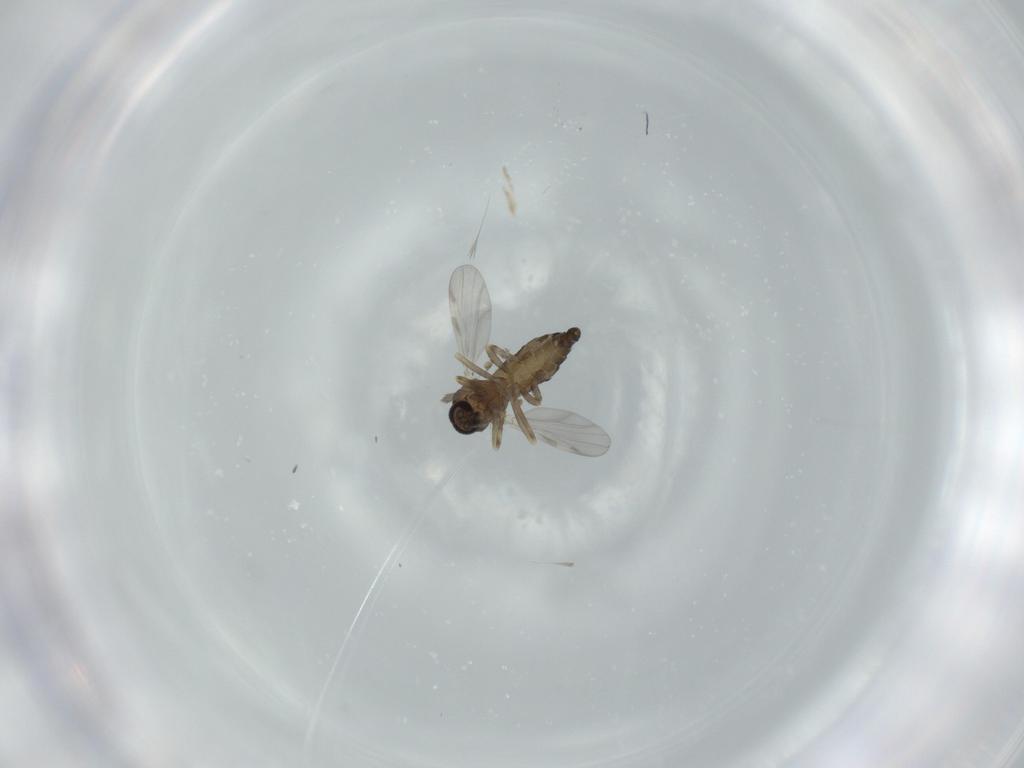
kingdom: Animalia
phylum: Arthropoda
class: Insecta
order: Diptera
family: Cecidomyiidae
